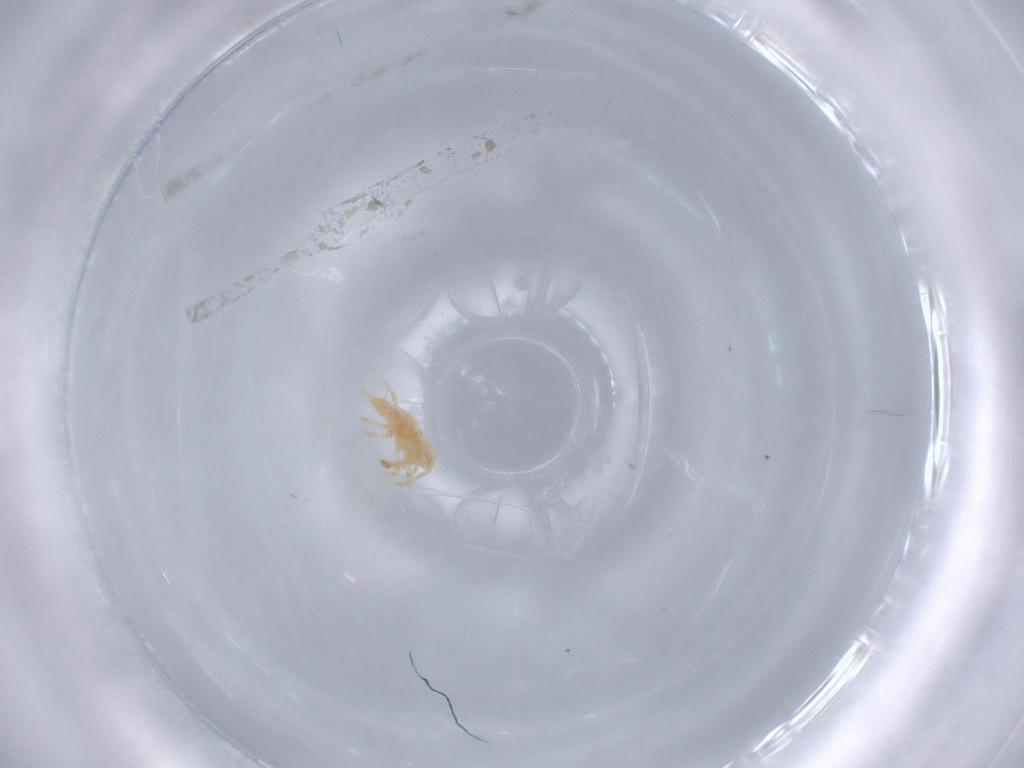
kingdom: Animalia
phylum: Arthropoda
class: Arachnida
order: Trombidiformes
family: Bdellidae
